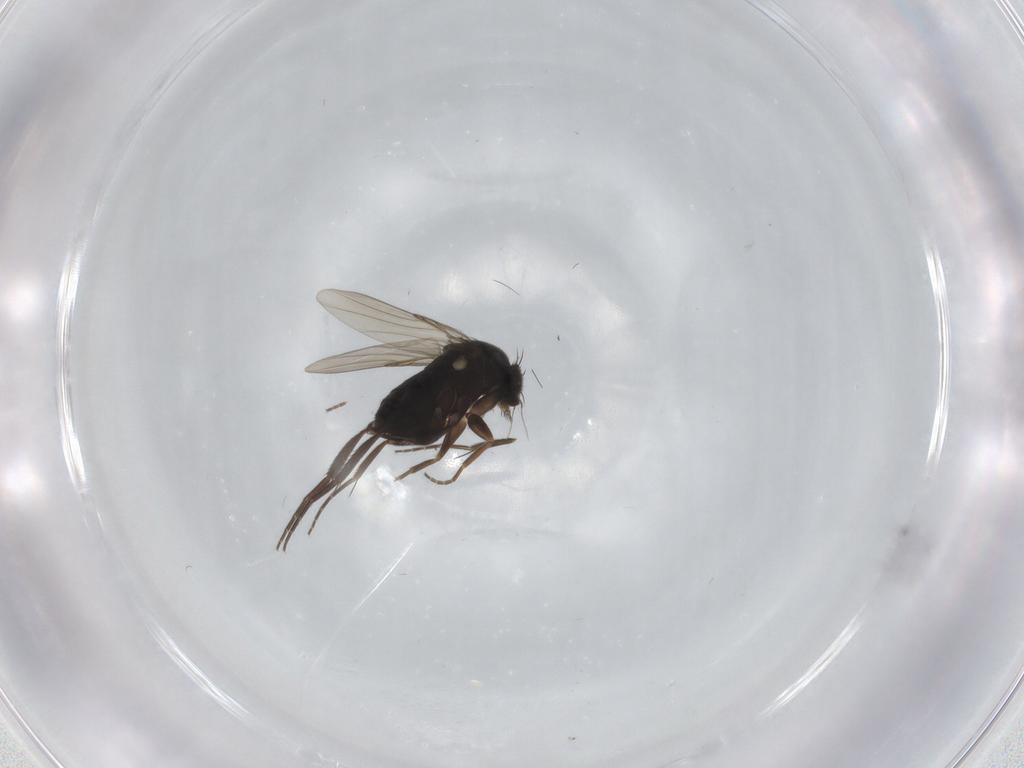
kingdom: Animalia
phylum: Arthropoda
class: Insecta
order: Diptera
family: Phoridae
